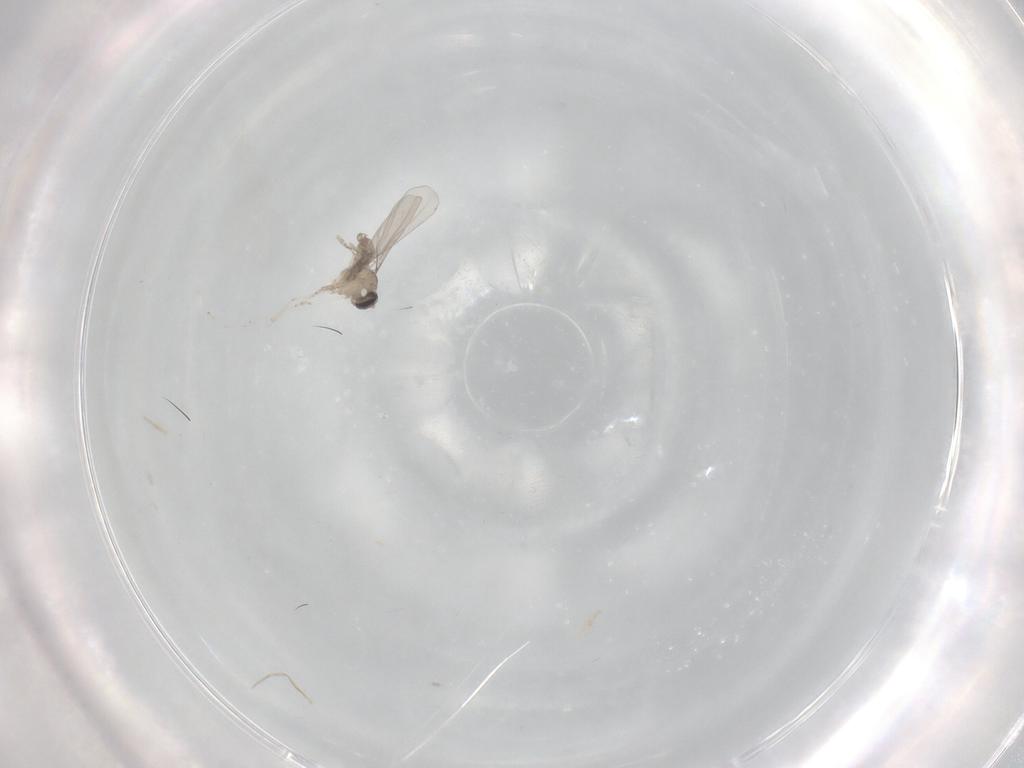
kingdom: Animalia
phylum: Arthropoda
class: Insecta
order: Diptera
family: Cecidomyiidae
